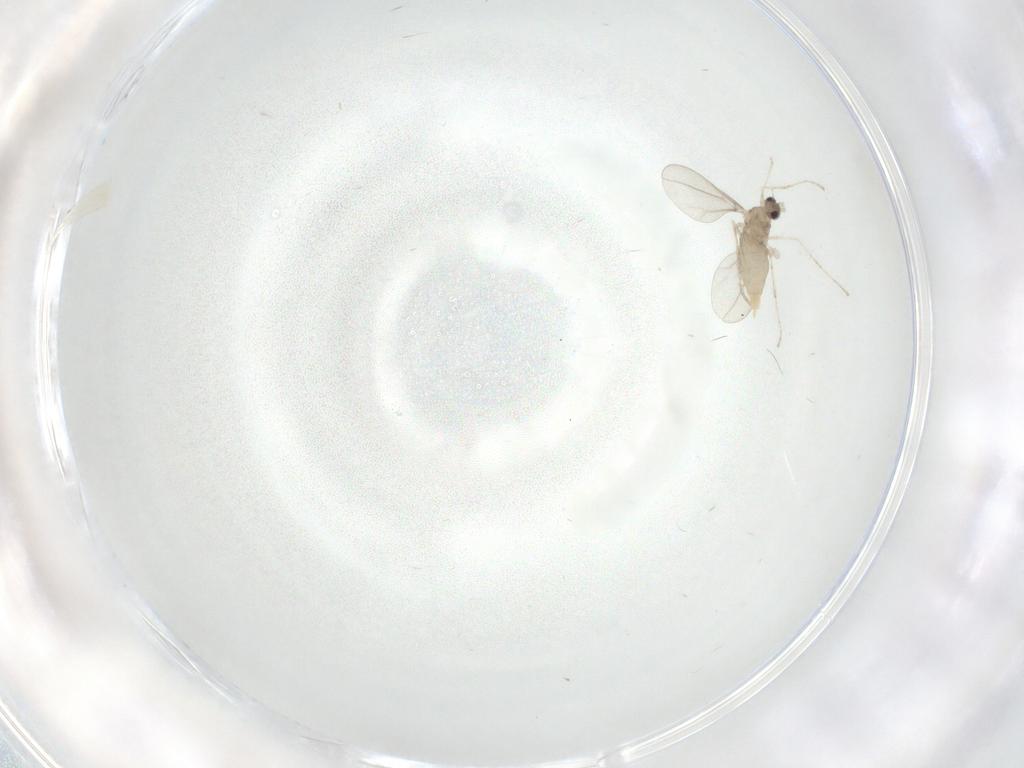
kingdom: Animalia
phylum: Arthropoda
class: Insecta
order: Diptera
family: Cecidomyiidae
